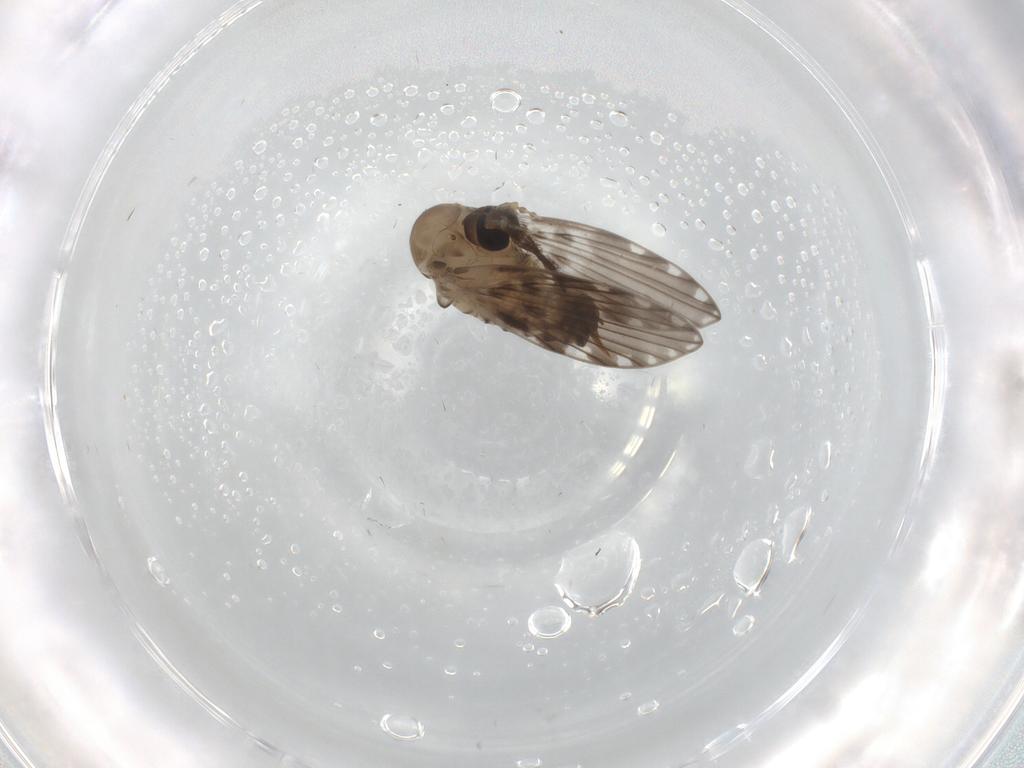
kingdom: Animalia
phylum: Arthropoda
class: Insecta
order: Diptera
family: Psychodidae
